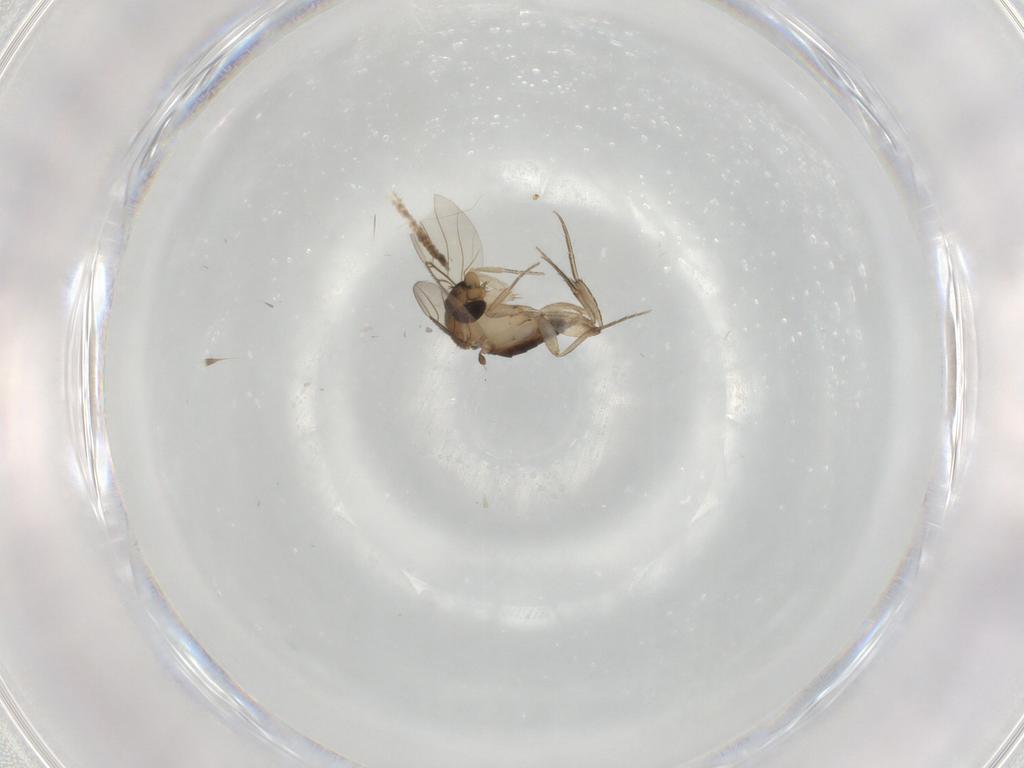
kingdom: Animalia
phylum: Arthropoda
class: Insecta
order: Diptera
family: Phoridae
